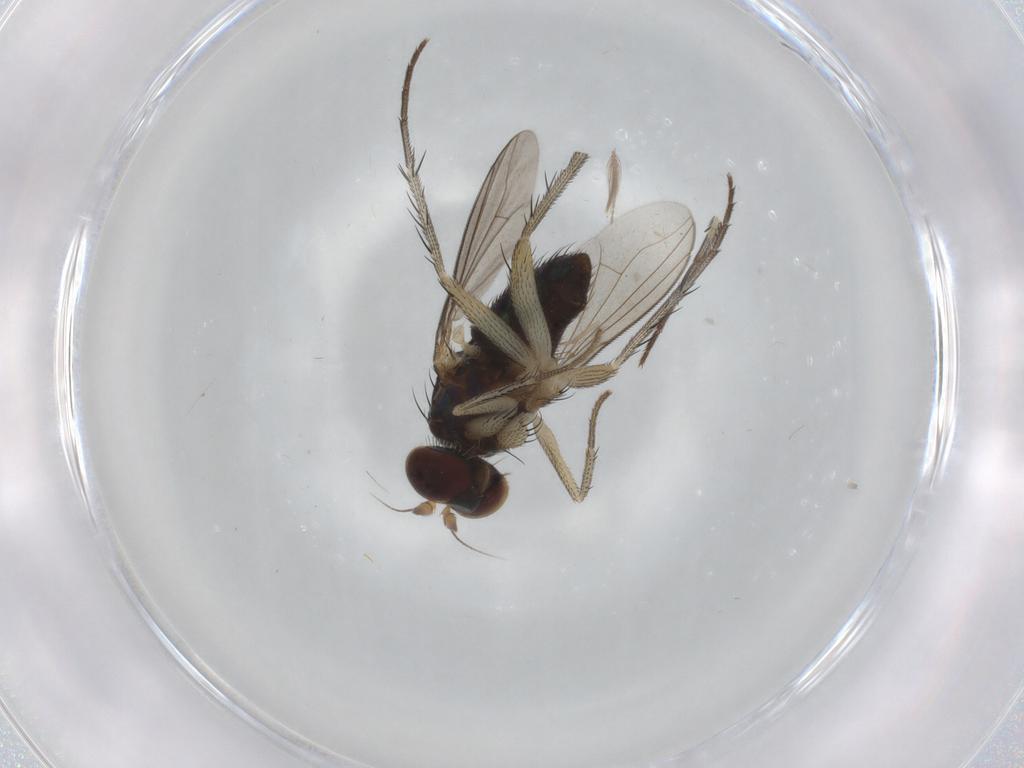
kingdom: Animalia
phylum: Arthropoda
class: Insecta
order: Diptera
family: Dolichopodidae
